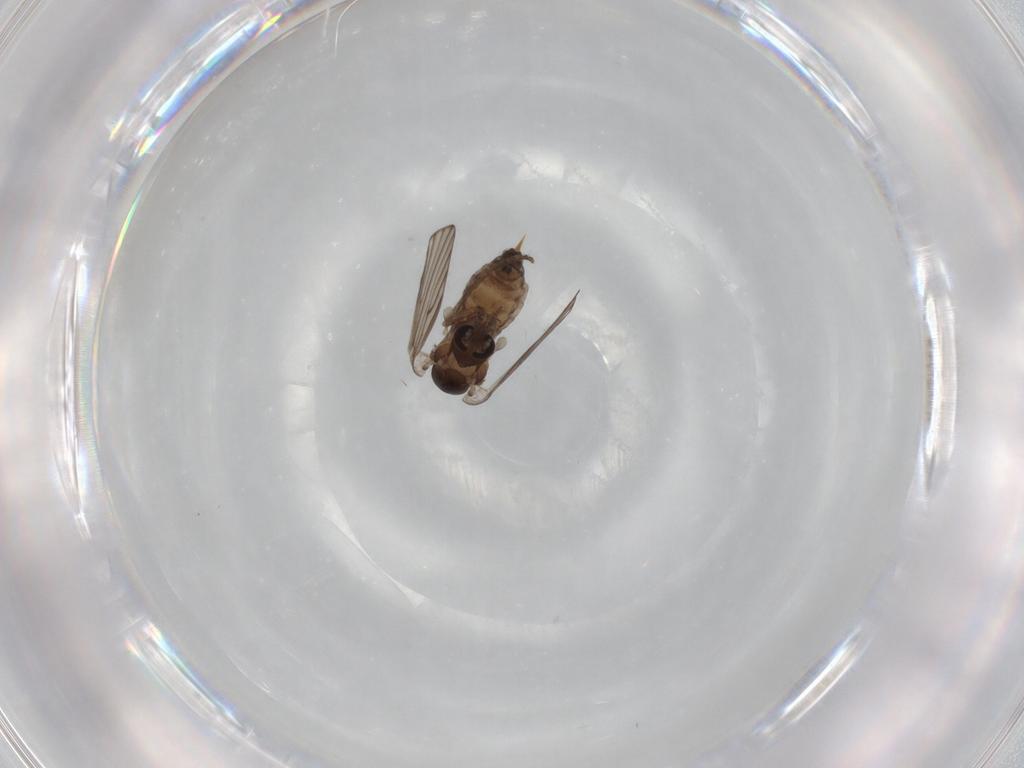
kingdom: Animalia
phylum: Arthropoda
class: Insecta
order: Diptera
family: Psychodidae
